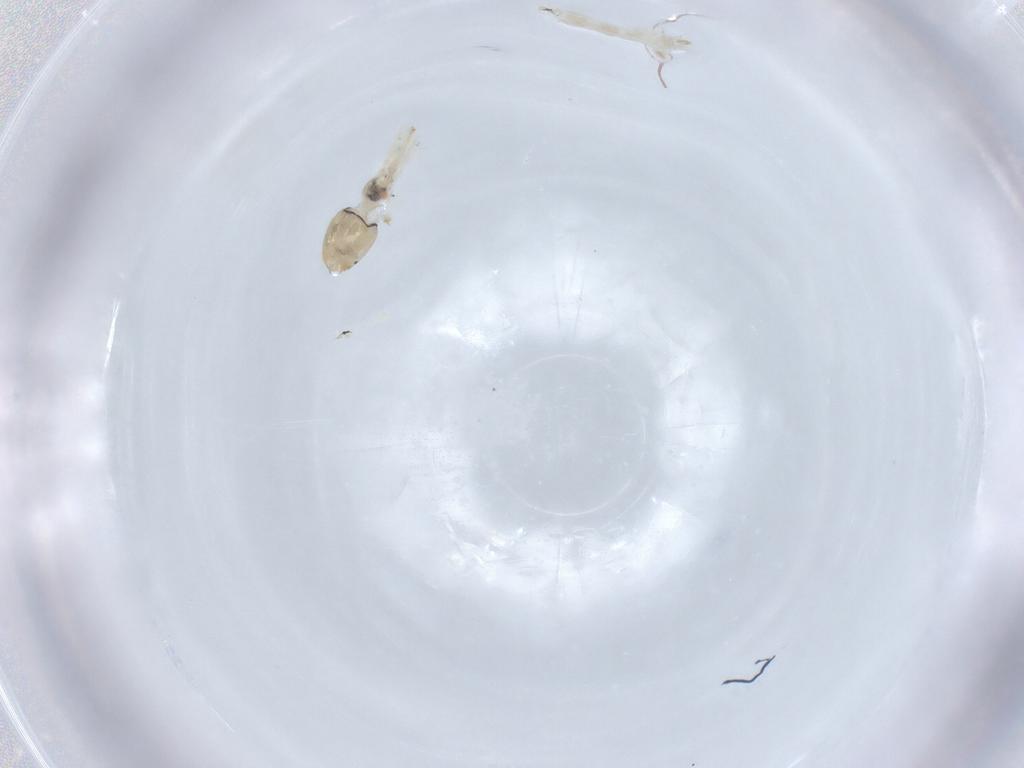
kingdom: Animalia
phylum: Arthropoda
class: Insecta
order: Diptera
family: Chironomidae
